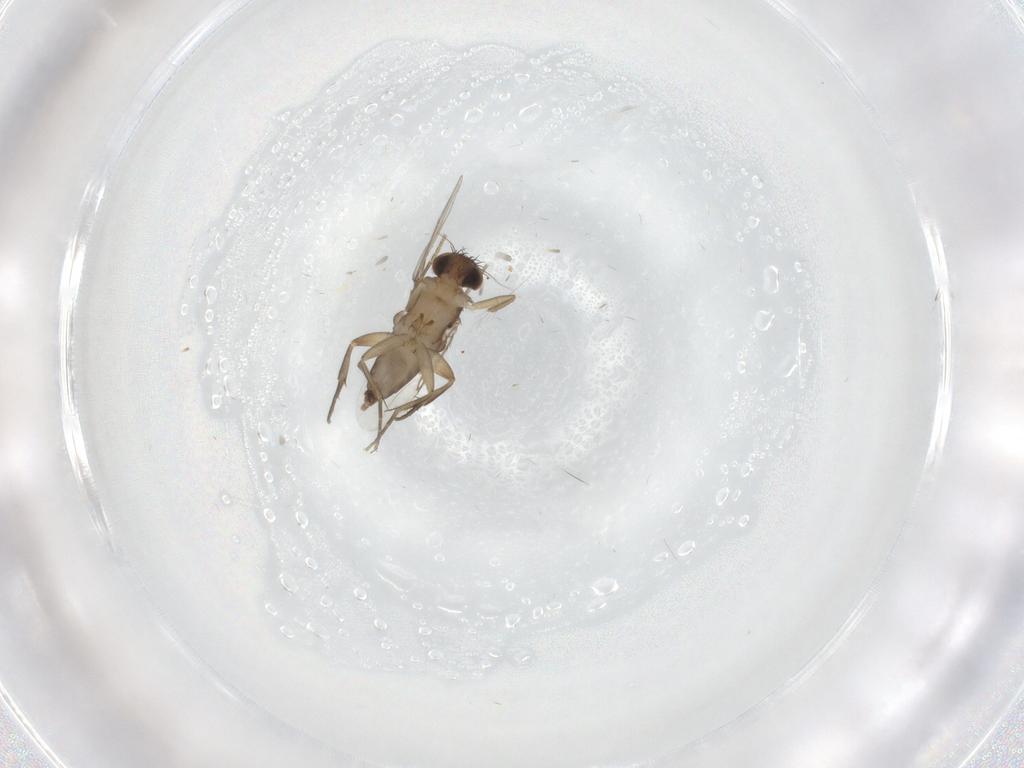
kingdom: Animalia
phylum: Arthropoda
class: Insecta
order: Diptera
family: Phoridae
